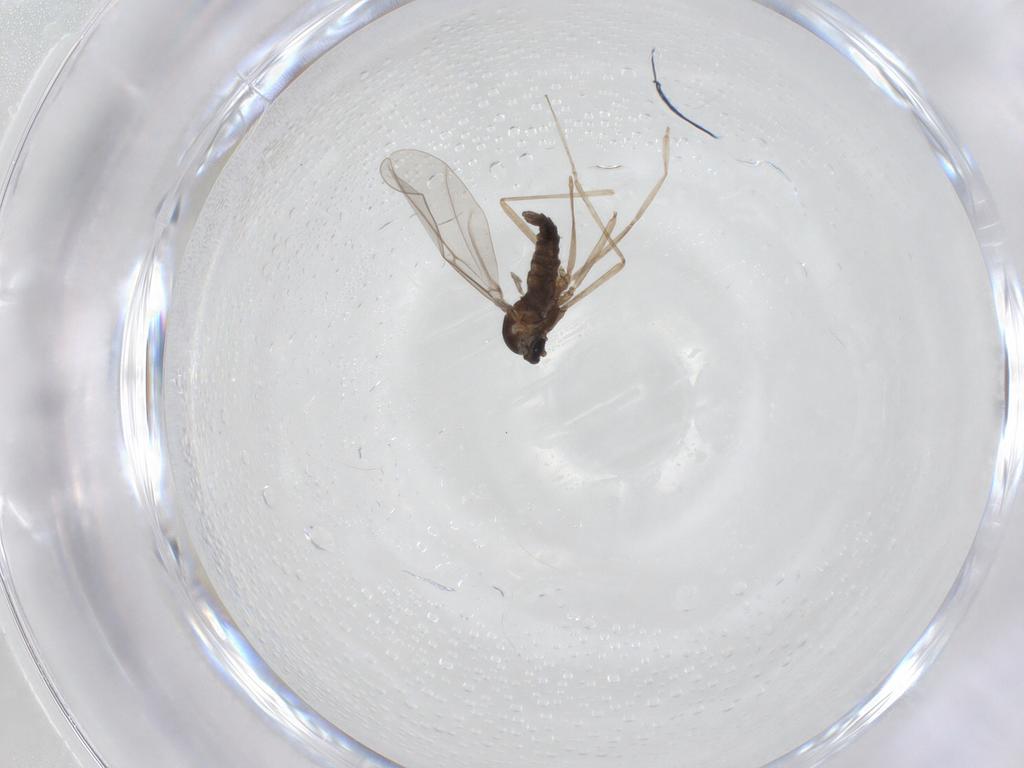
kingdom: Animalia
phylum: Arthropoda
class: Insecta
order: Diptera
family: Cecidomyiidae
